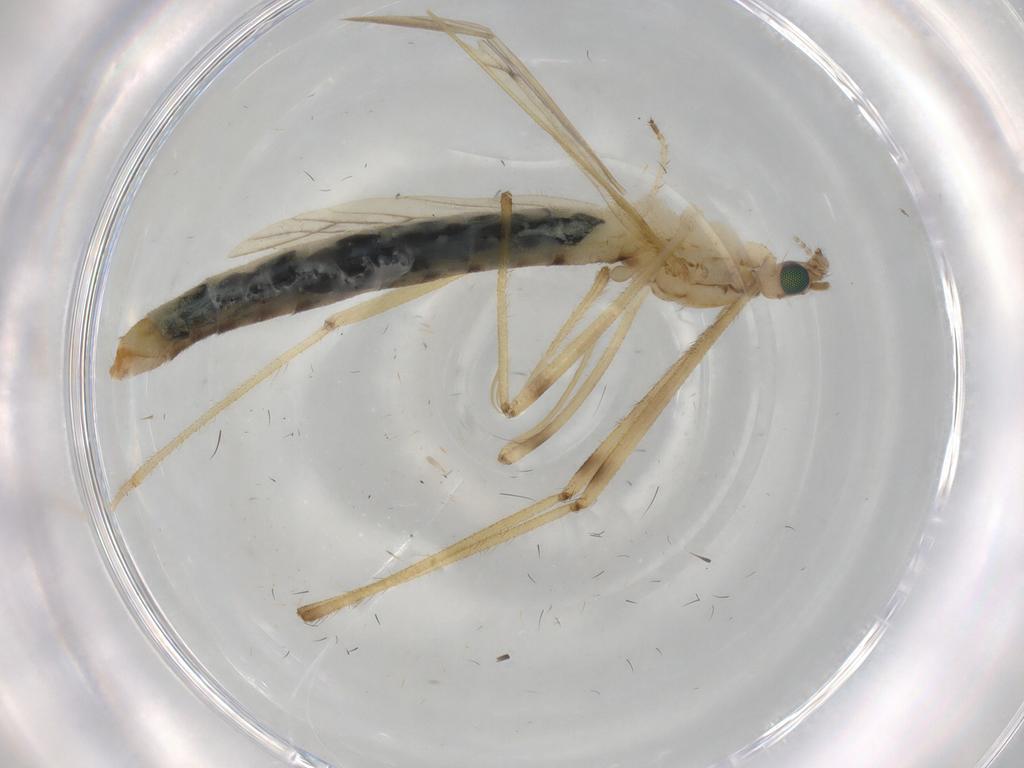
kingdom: Animalia
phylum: Arthropoda
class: Insecta
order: Diptera
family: Limoniidae
